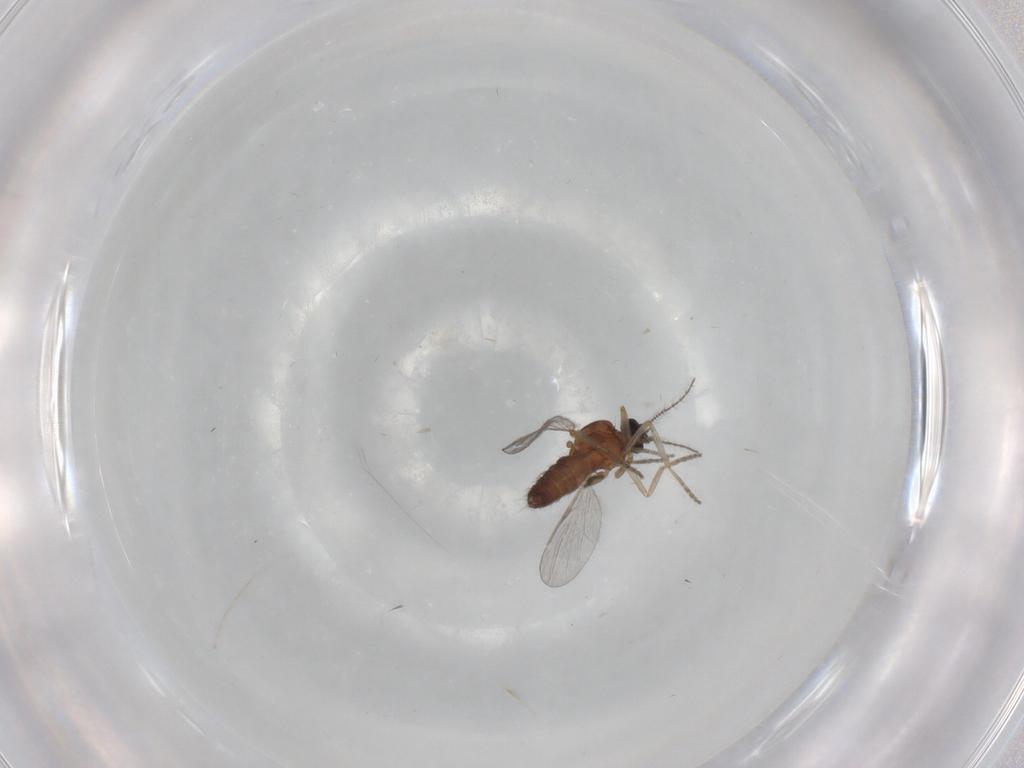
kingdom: Animalia
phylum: Arthropoda
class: Insecta
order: Diptera
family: Ceratopogonidae
